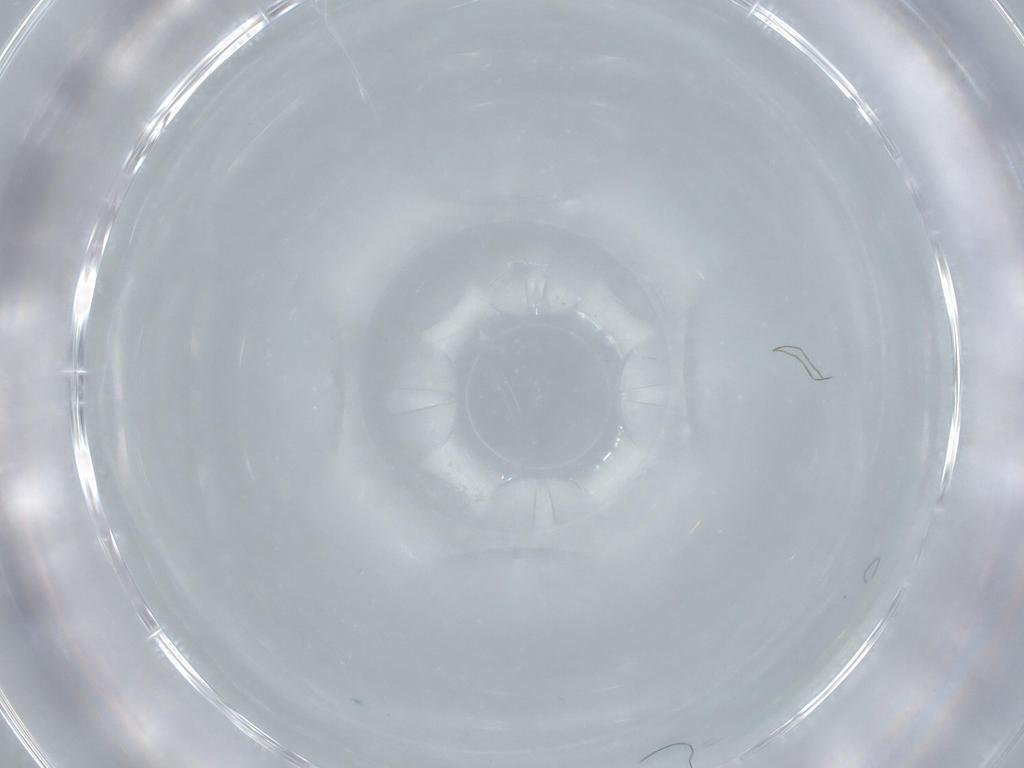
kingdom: Animalia
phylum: Arthropoda
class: Insecta
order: Diptera
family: Cecidomyiidae
